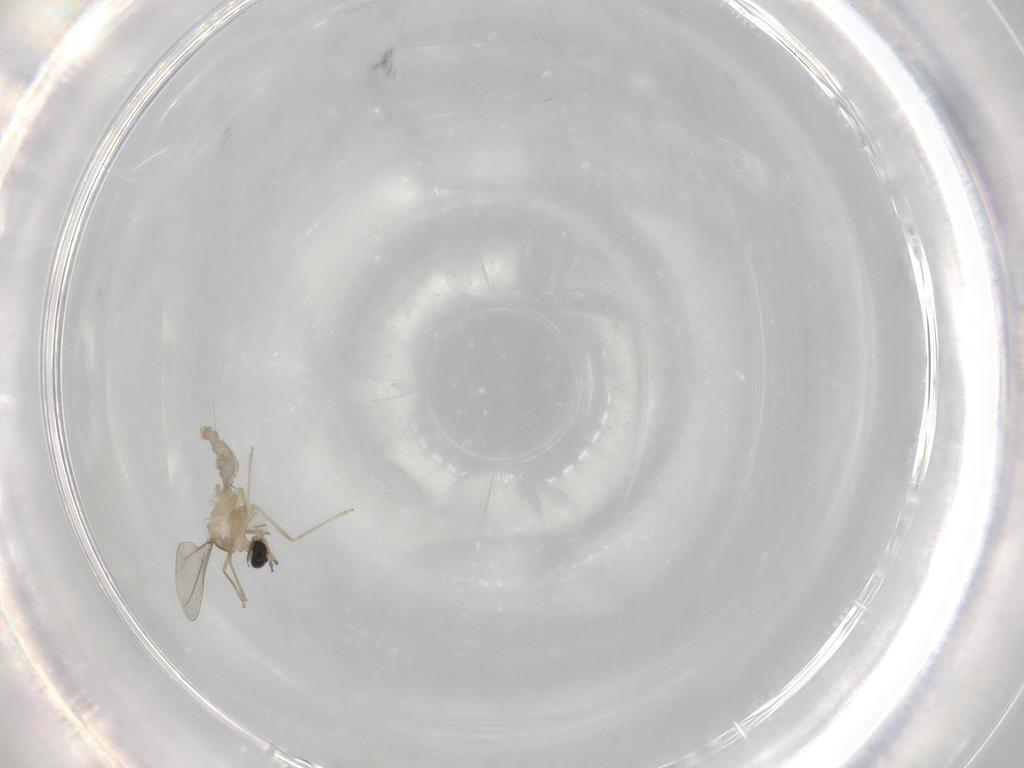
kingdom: Animalia
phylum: Arthropoda
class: Insecta
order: Diptera
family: Cecidomyiidae
